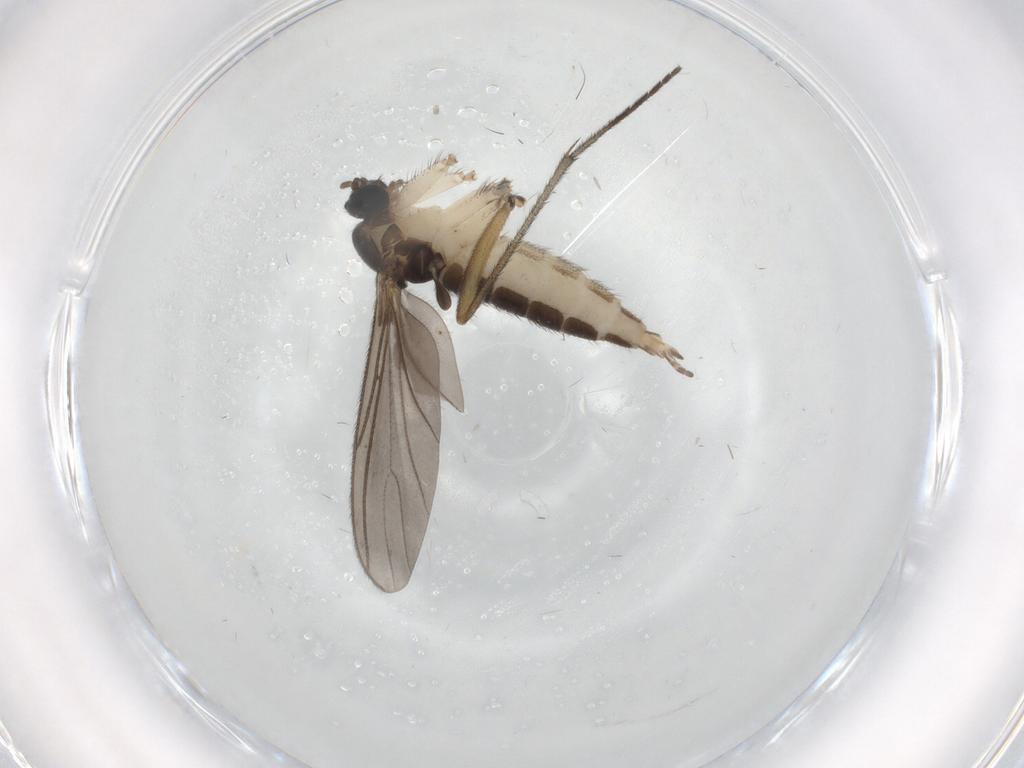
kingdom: Animalia
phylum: Arthropoda
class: Insecta
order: Diptera
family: Sciaridae
